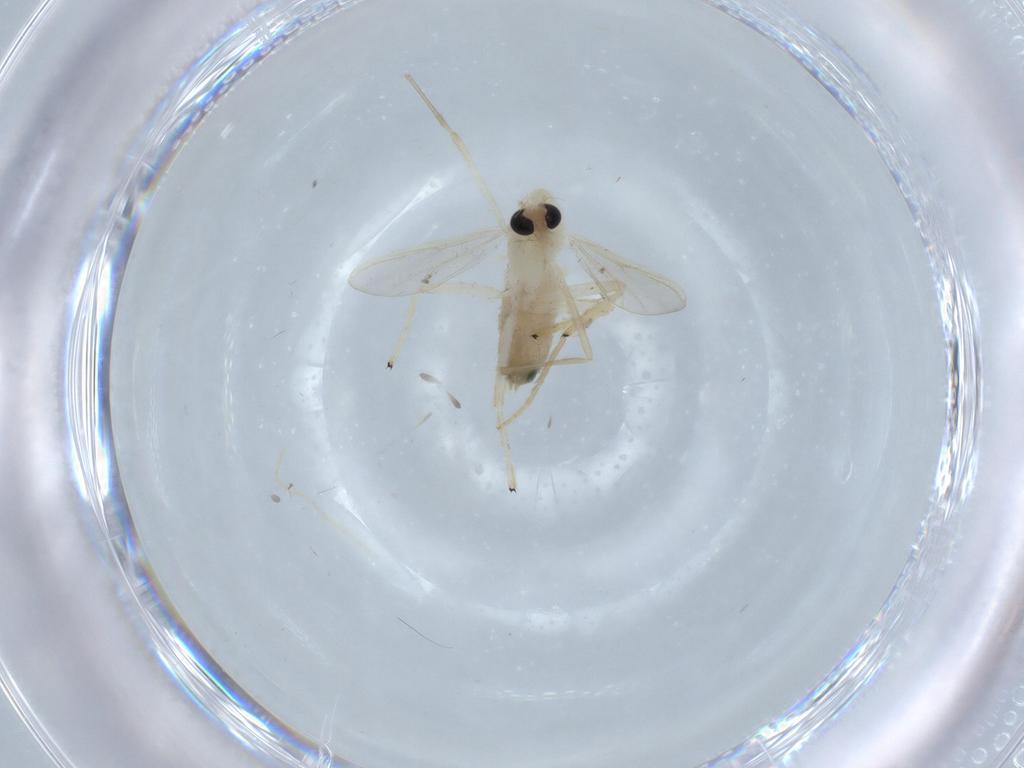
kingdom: Animalia
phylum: Arthropoda
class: Insecta
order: Diptera
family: Chironomidae
